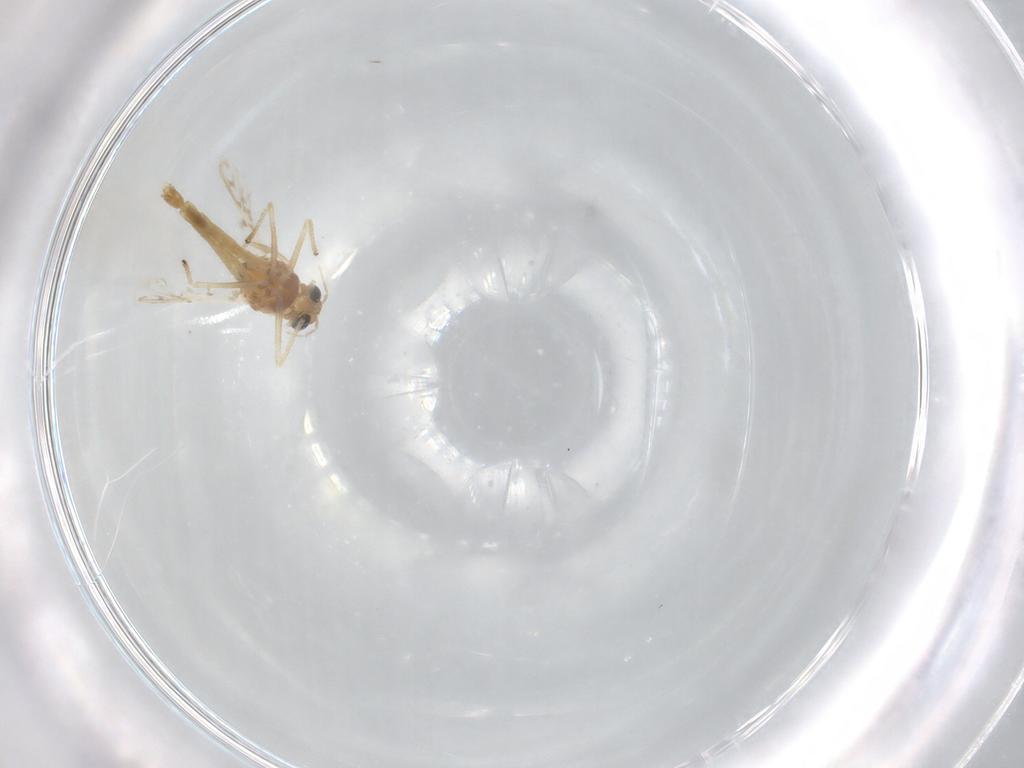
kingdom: Animalia
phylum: Arthropoda
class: Insecta
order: Diptera
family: Chironomidae
